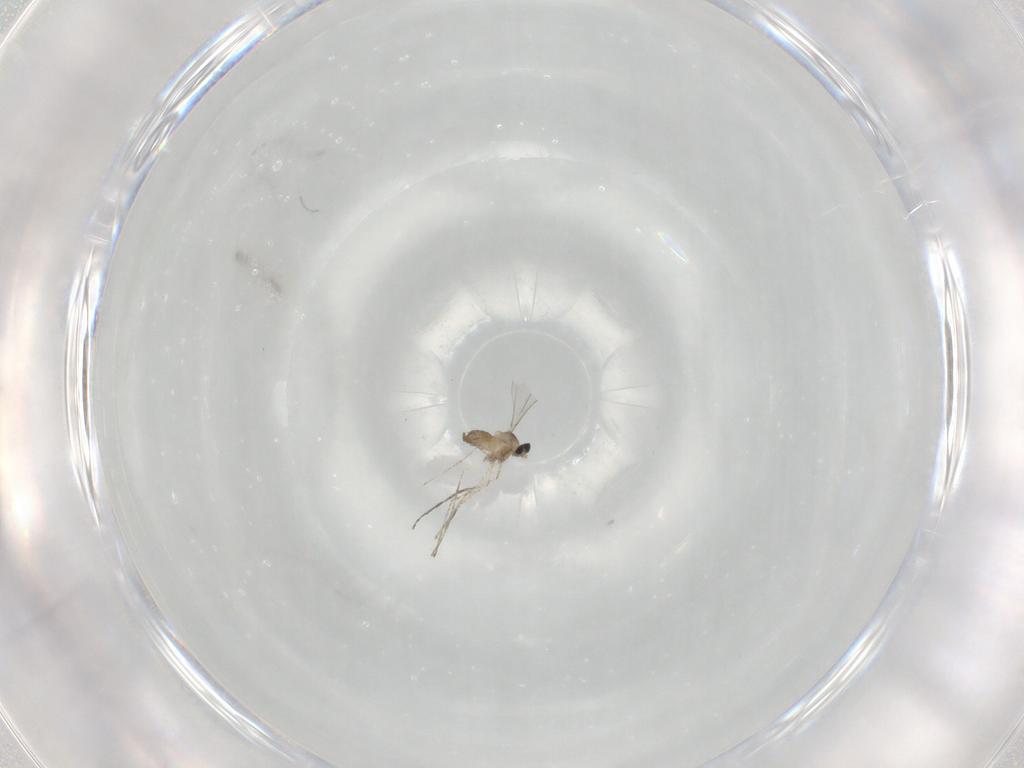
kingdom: Animalia
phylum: Arthropoda
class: Insecta
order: Diptera
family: Cecidomyiidae
